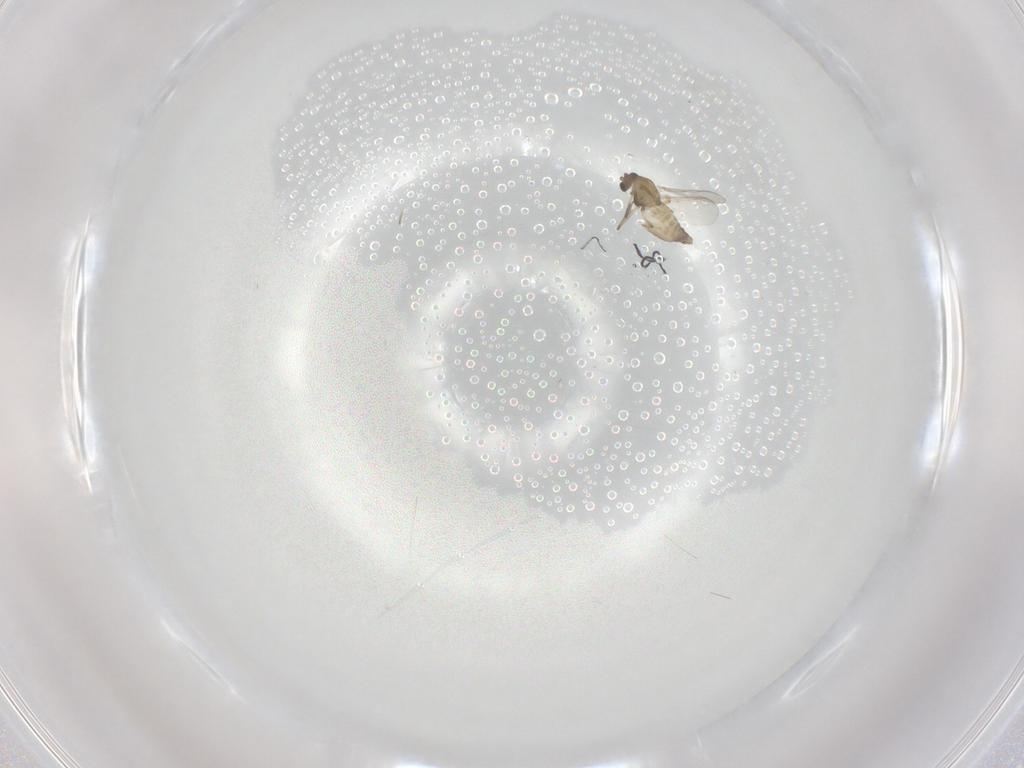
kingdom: Animalia
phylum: Arthropoda
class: Insecta
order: Diptera
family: Chironomidae
